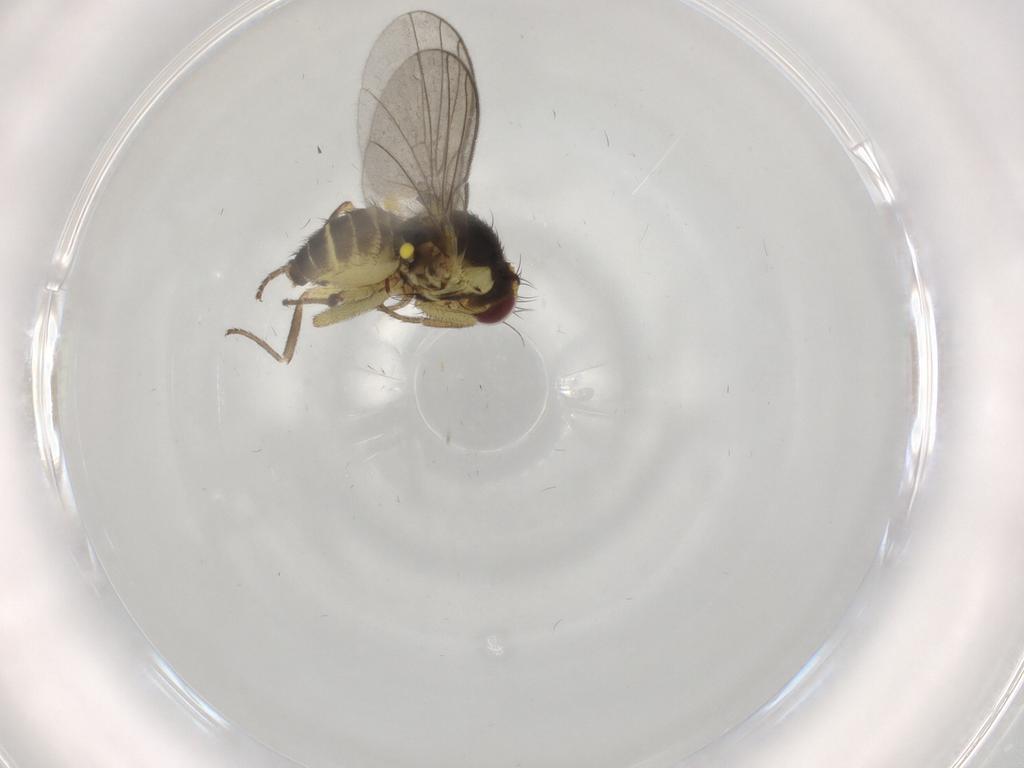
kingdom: Animalia
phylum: Arthropoda
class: Insecta
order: Diptera
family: Agromyzidae
